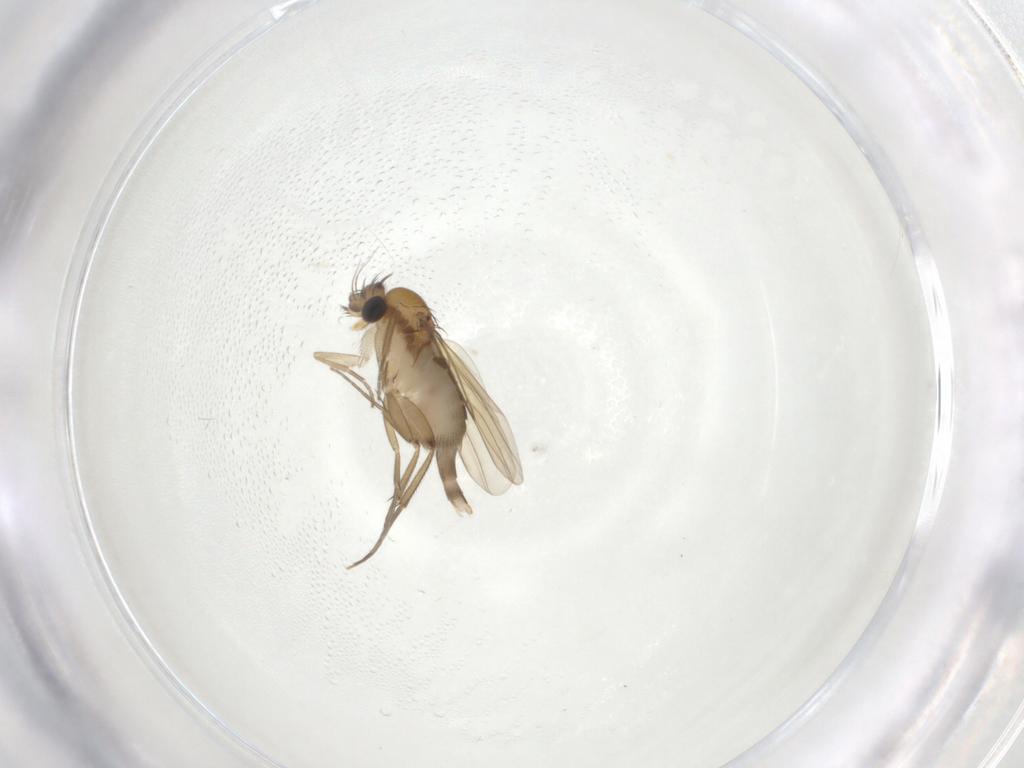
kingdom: Animalia
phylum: Arthropoda
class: Insecta
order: Diptera
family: Phoridae
